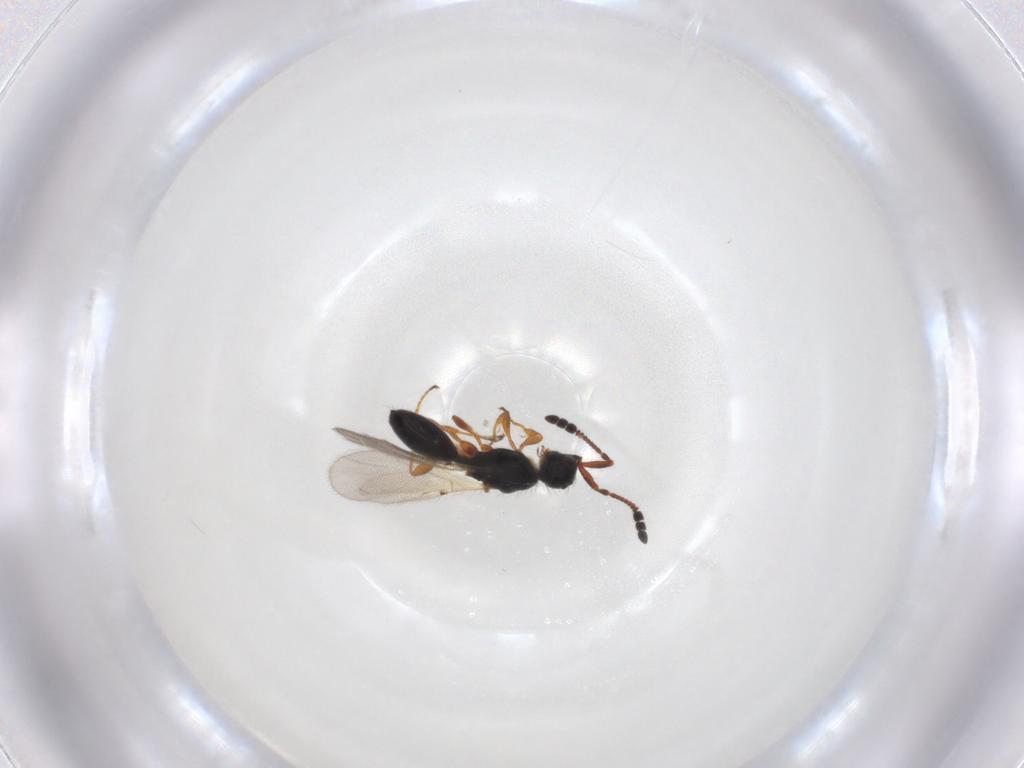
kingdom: Animalia
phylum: Arthropoda
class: Insecta
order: Hymenoptera
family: Diapriidae
